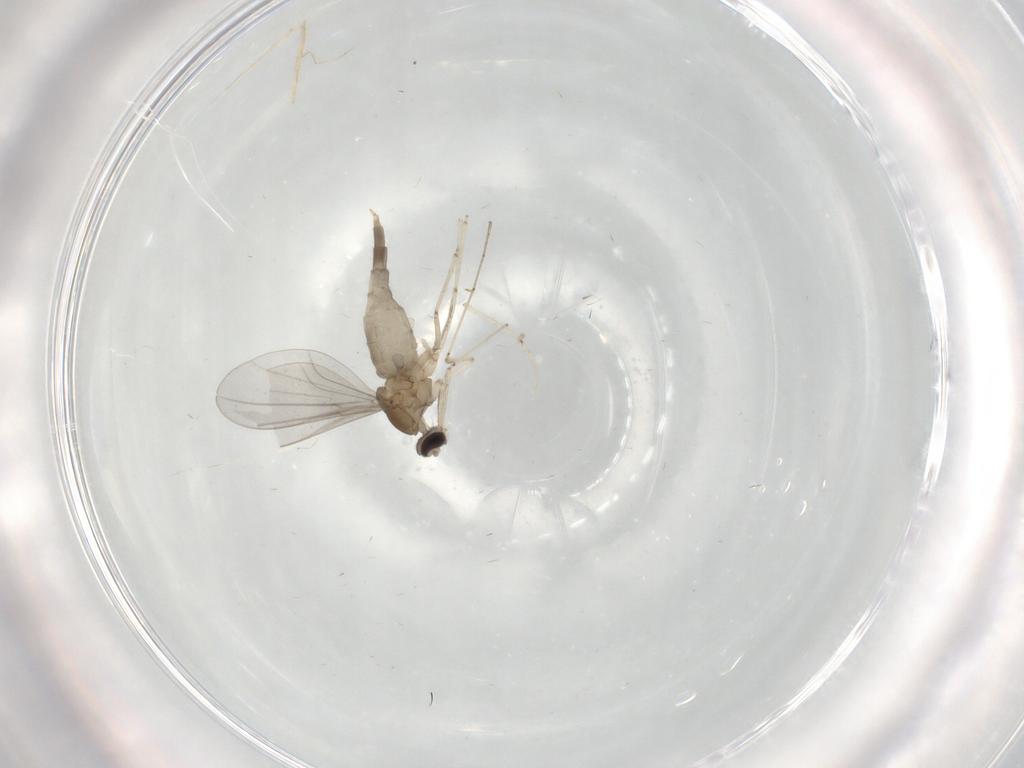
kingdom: Animalia
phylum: Arthropoda
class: Insecta
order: Diptera
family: Cecidomyiidae
